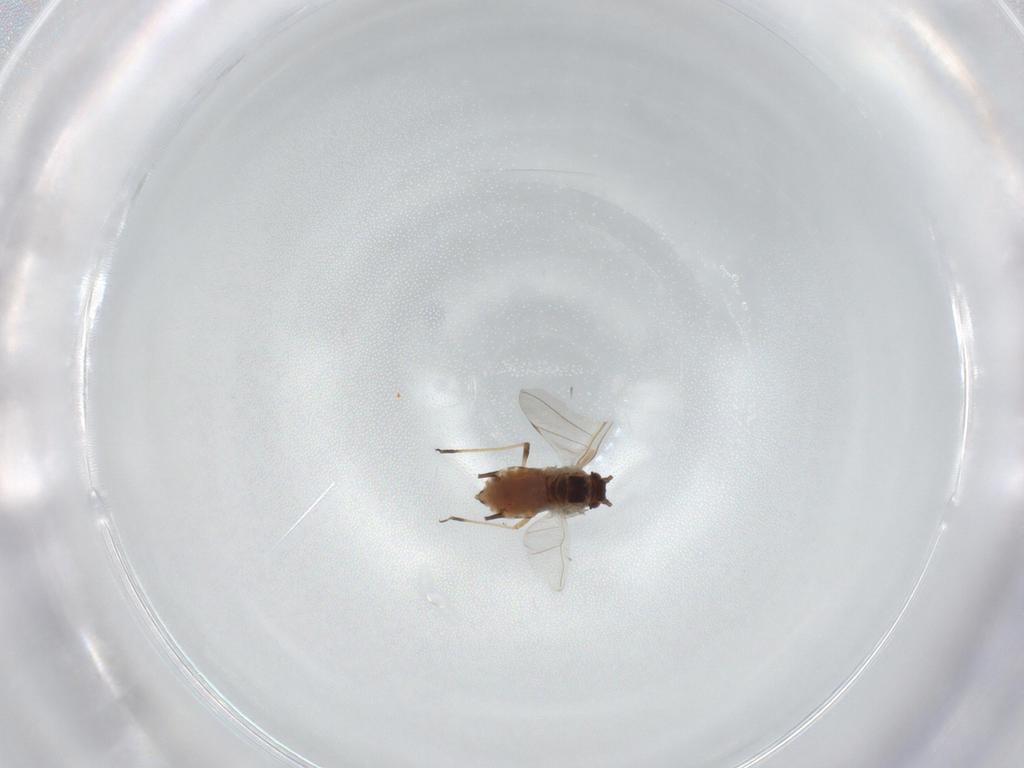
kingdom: Animalia
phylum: Arthropoda
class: Insecta
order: Hemiptera
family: Aphididae
